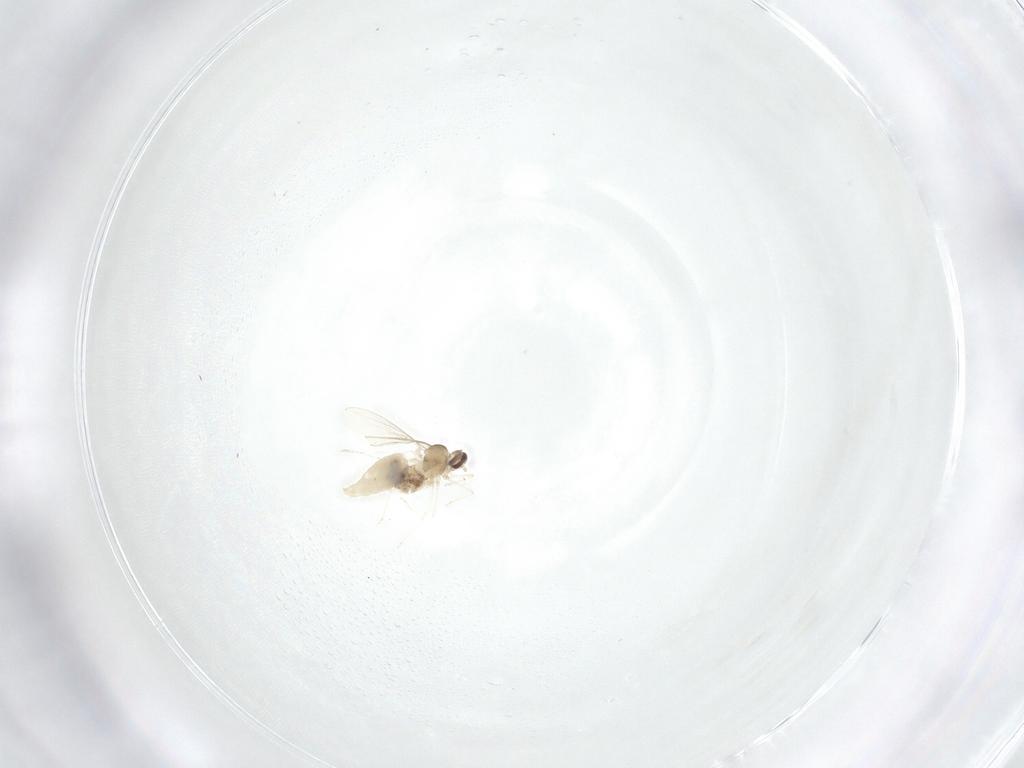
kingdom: Animalia
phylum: Arthropoda
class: Insecta
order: Diptera
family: Cecidomyiidae
